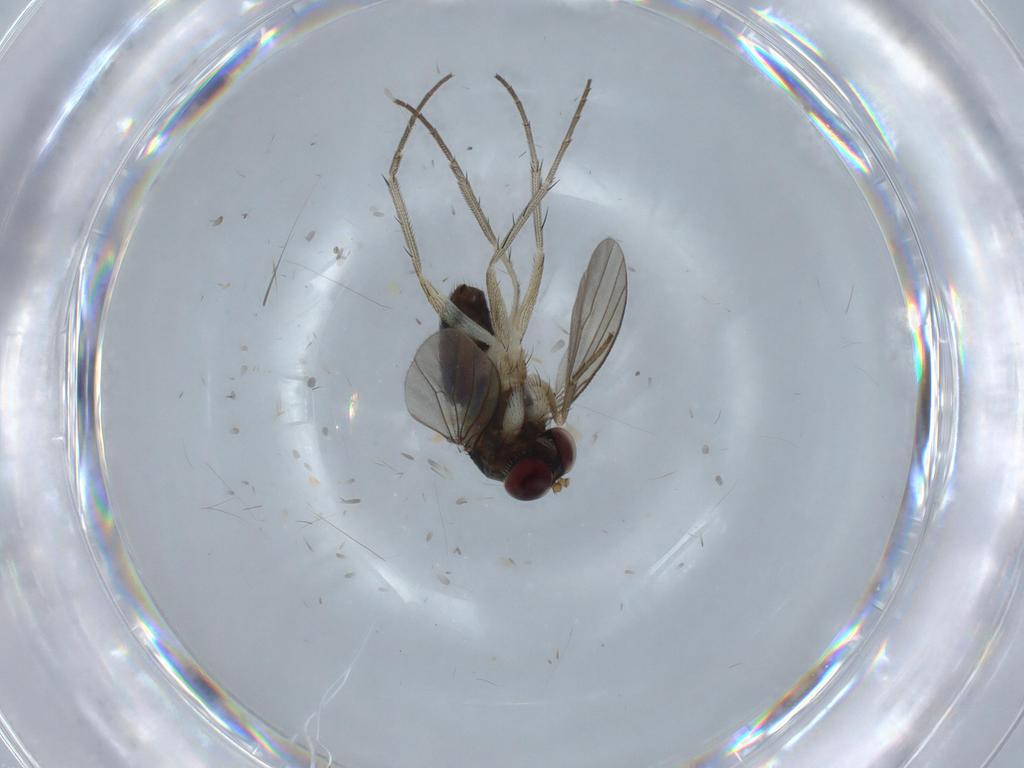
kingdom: Animalia
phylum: Arthropoda
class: Insecta
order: Diptera
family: Dolichopodidae
